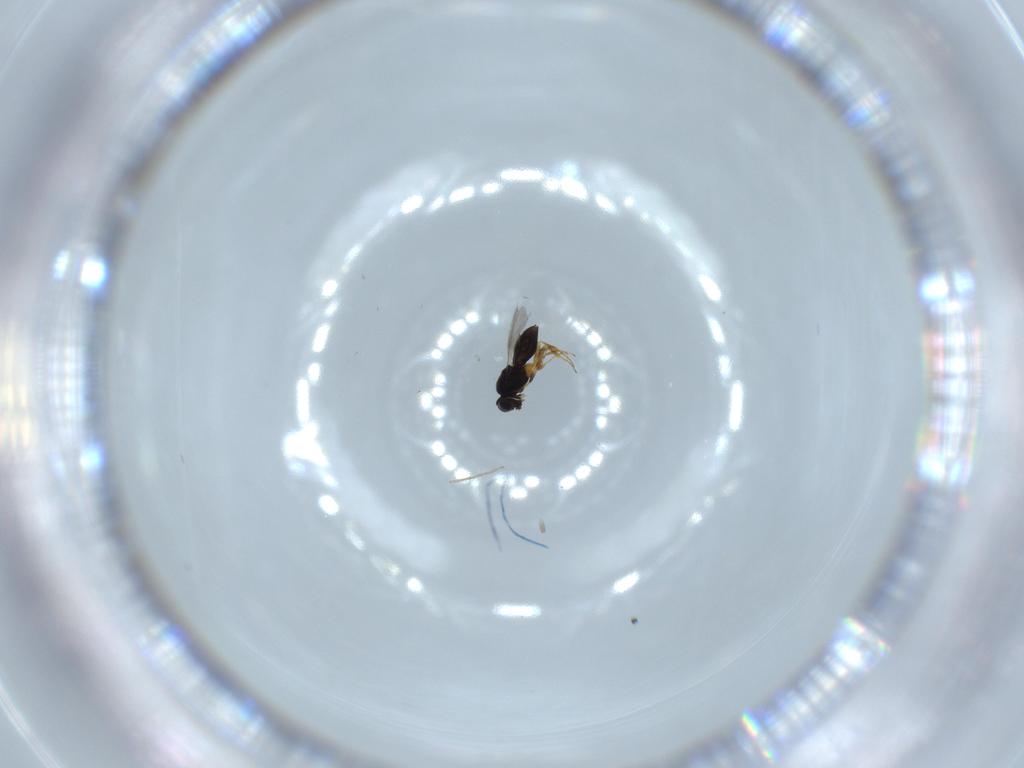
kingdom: Animalia
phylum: Arthropoda
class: Insecta
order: Hymenoptera
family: Scelionidae
